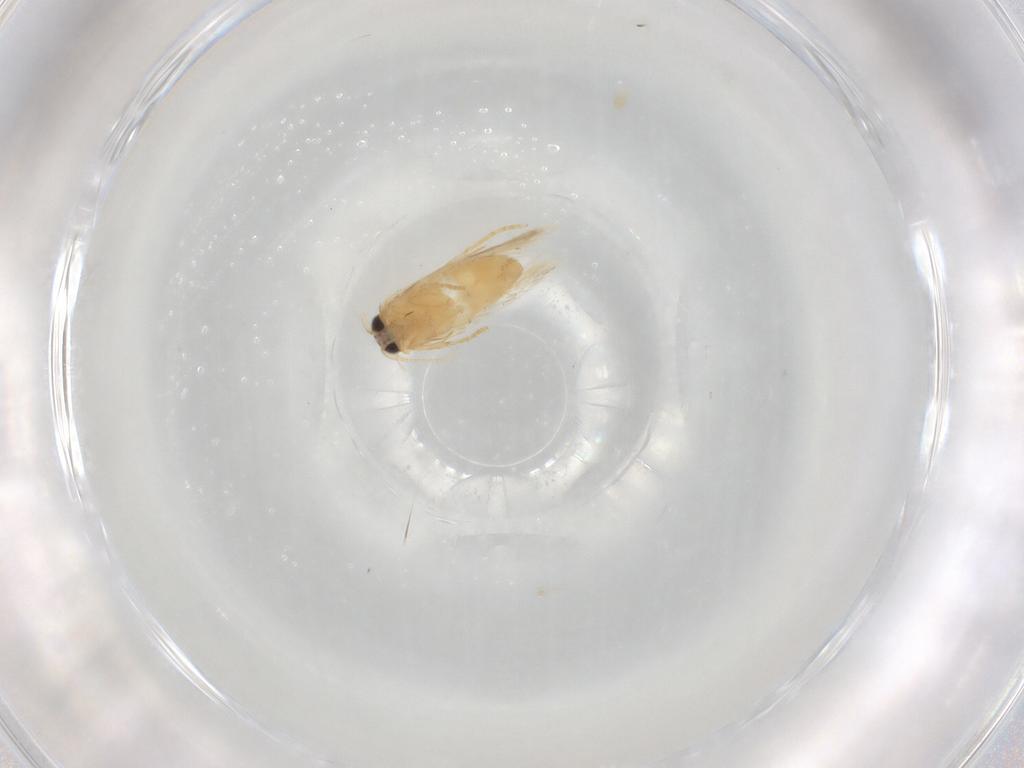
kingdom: Animalia
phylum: Arthropoda
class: Insecta
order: Lepidoptera
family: Nepticulidae
